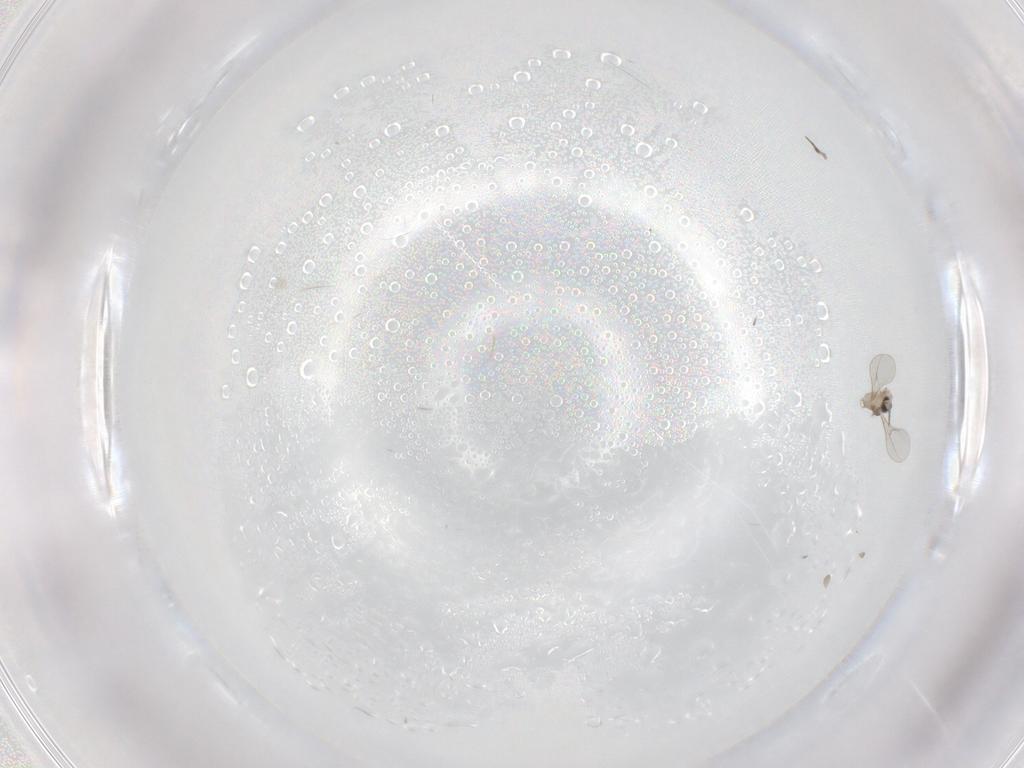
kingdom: Animalia
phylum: Arthropoda
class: Insecta
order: Diptera
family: Cecidomyiidae
